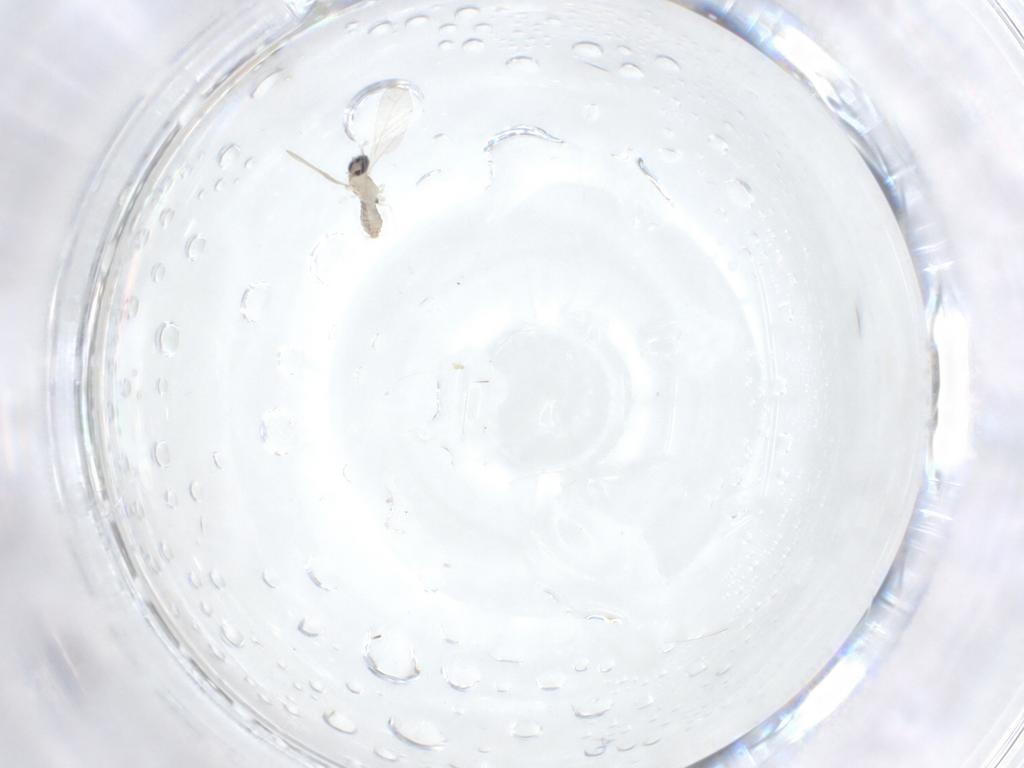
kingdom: Animalia
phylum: Arthropoda
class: Insecta
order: Diptera
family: Cecidomyiidae
